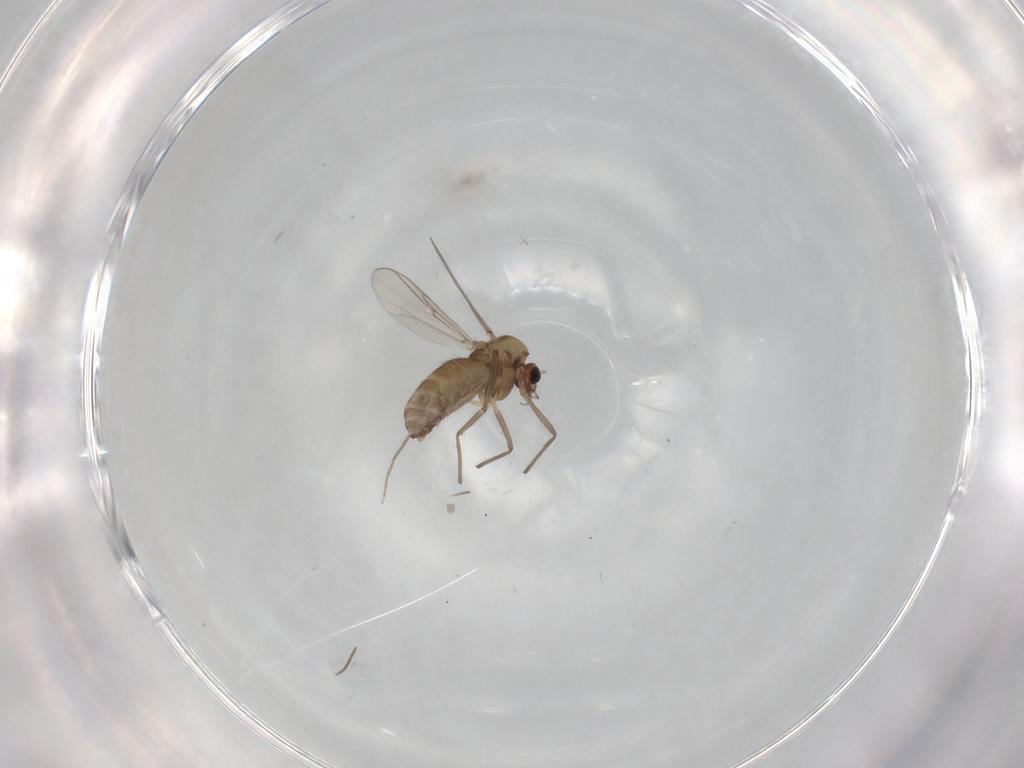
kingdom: Animalia
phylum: Arthropoda
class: Insecta
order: Diptera
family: Chironomidae
